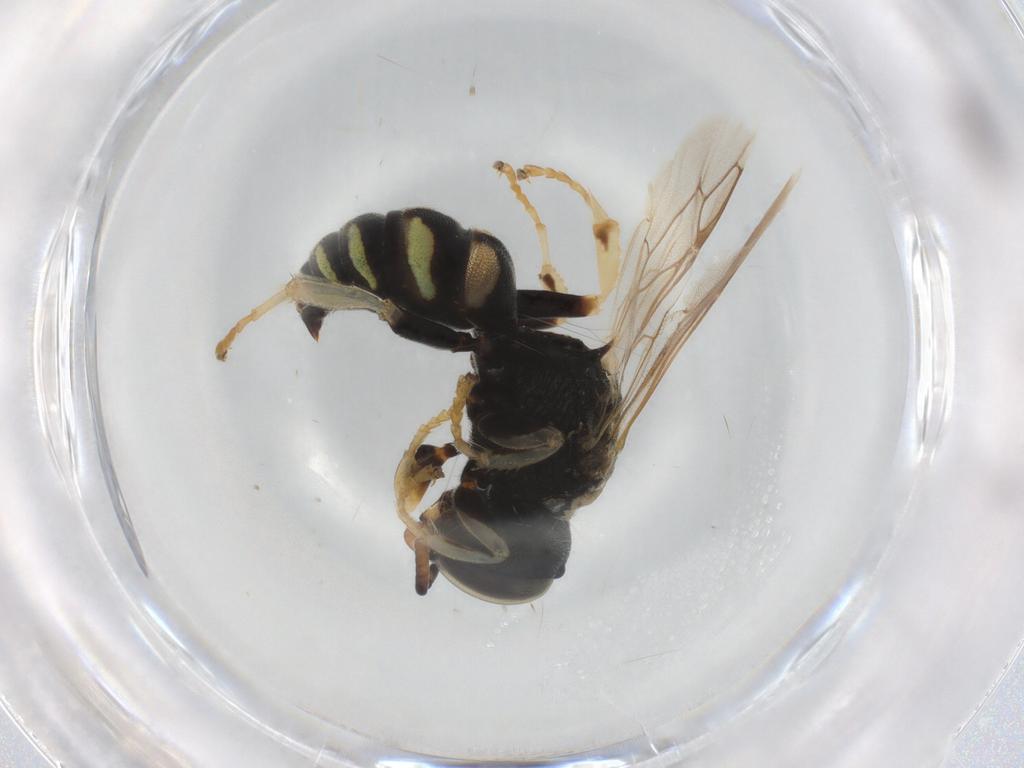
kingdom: Animalia
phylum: Arthropoda
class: Insecta
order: Hymenoptera
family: Crabronidae
